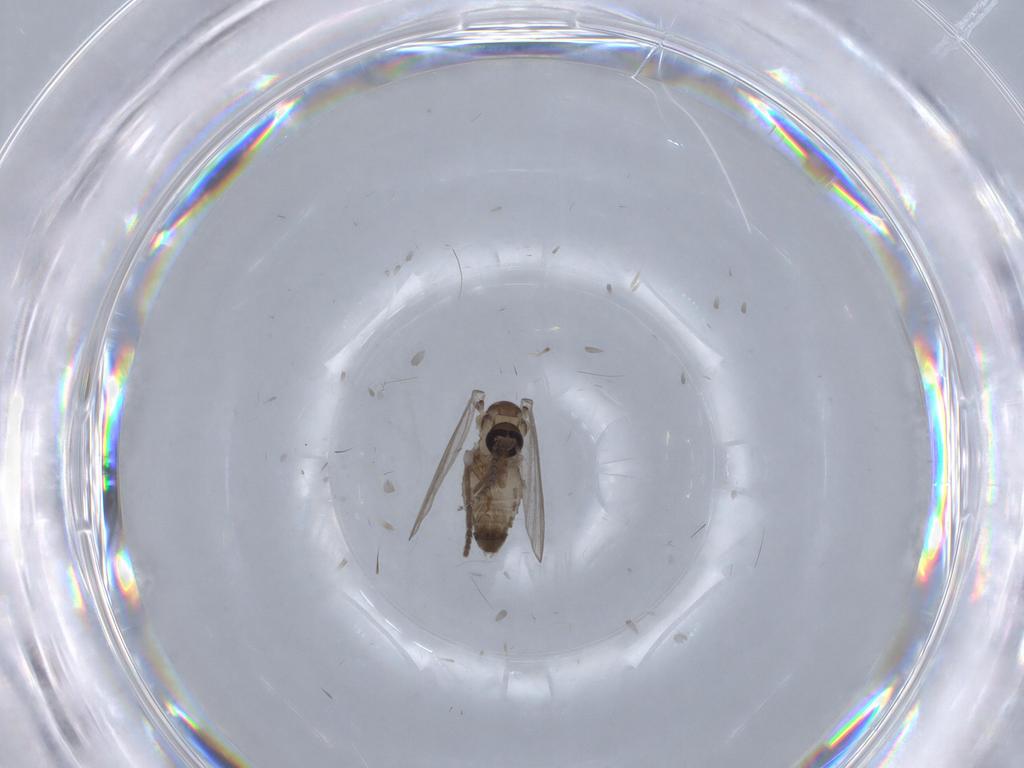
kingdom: Animalia
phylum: Arthropoda
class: Insecta
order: Diptera
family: Psychodidae
